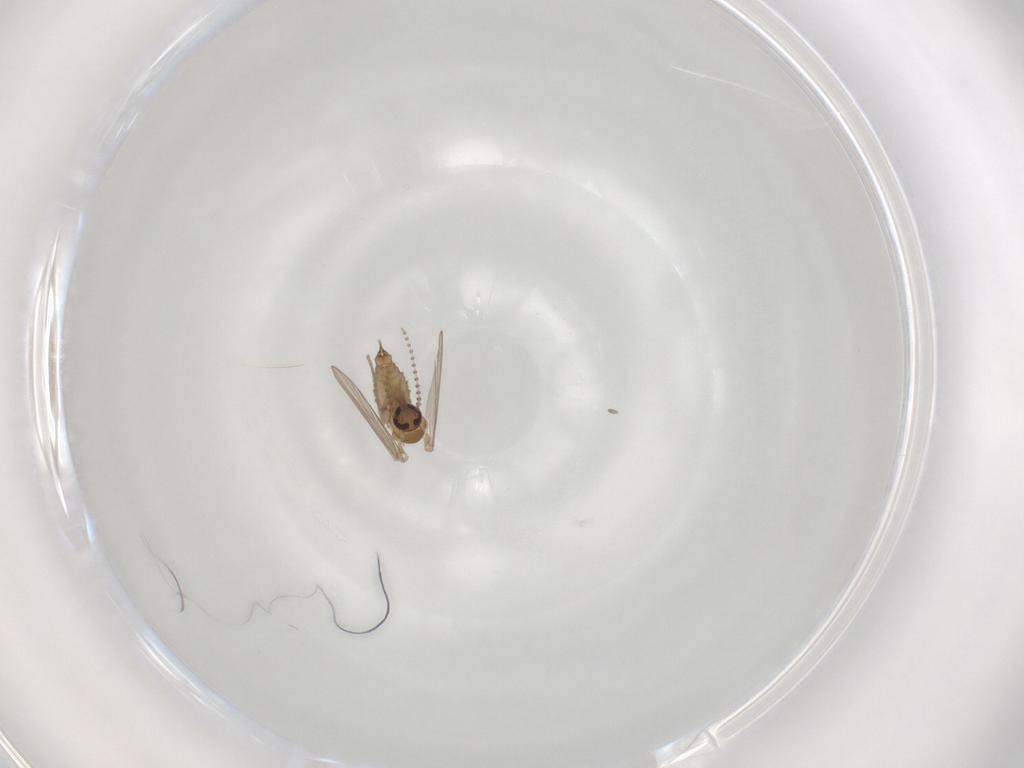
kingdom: Animalia
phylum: Arthropoda
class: Insecta
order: Diptera
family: Psychodidae
